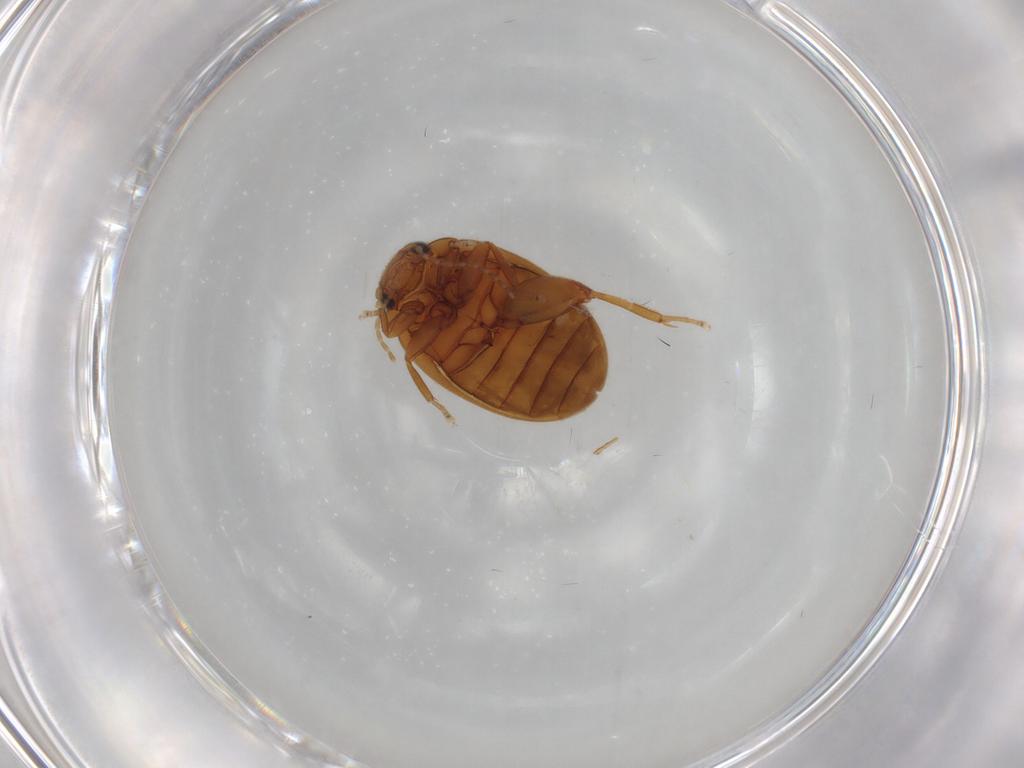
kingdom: Animalia
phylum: Arthropoda
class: Insecta
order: Coleoptera
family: Scirtidae
